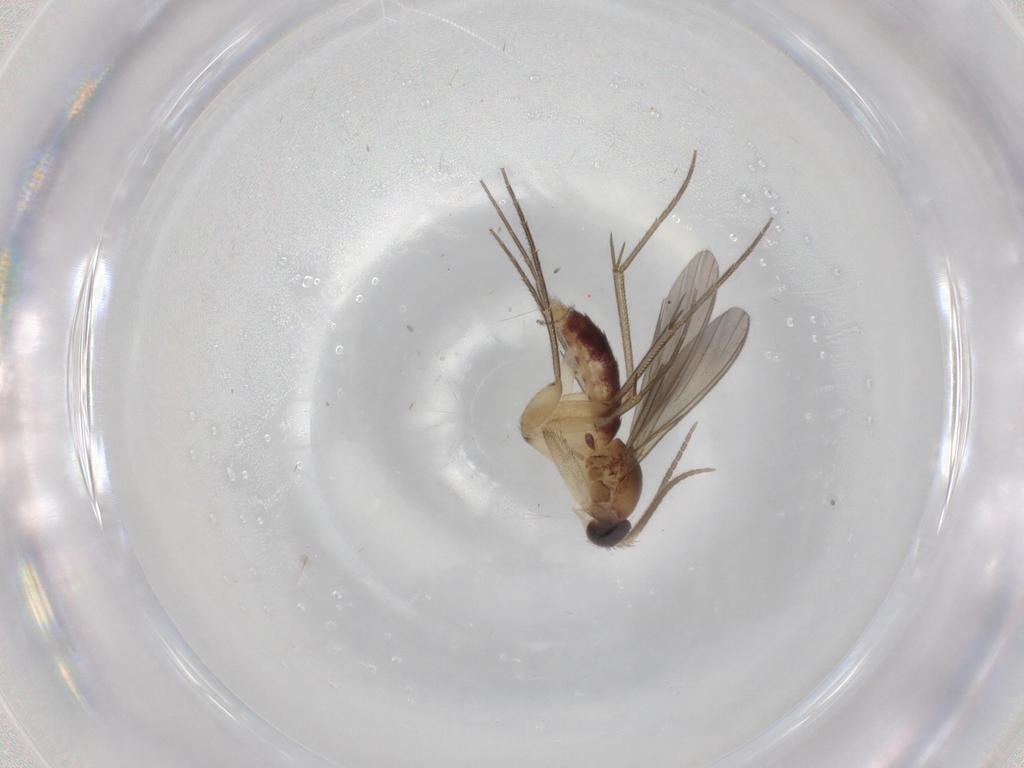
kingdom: Animalia
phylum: Arthropoda
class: Insecta
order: Diptera
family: Mycetophilidae
